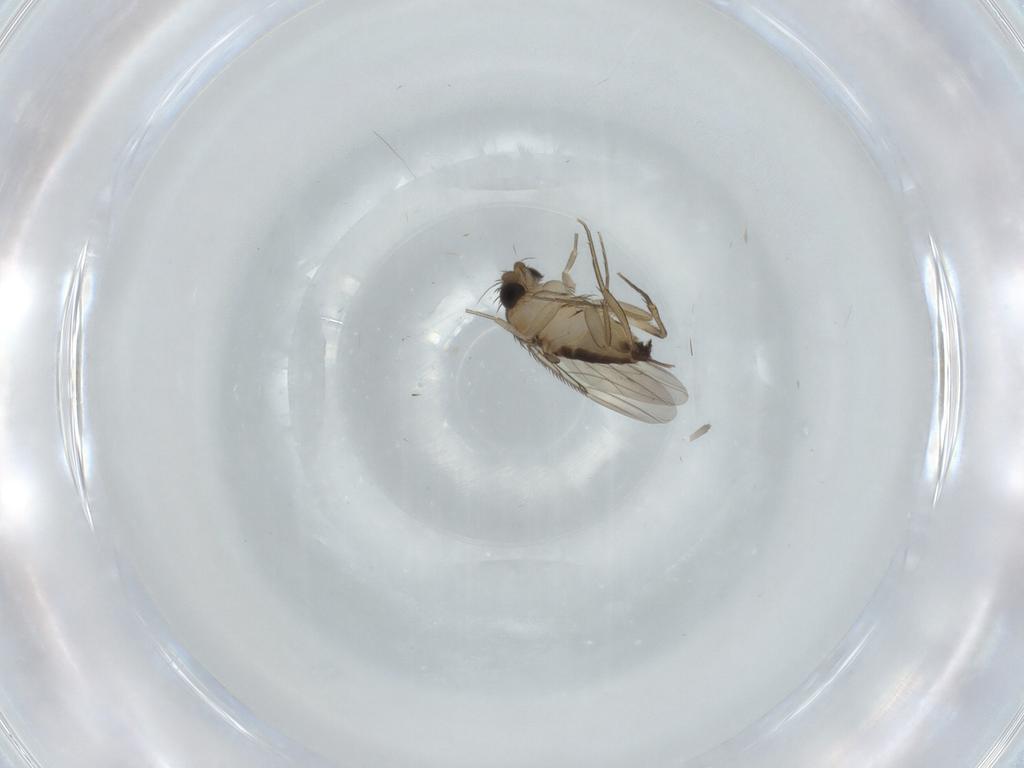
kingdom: Animalia
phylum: Arthropoda
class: Insecta
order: Diptera
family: Phoridae
